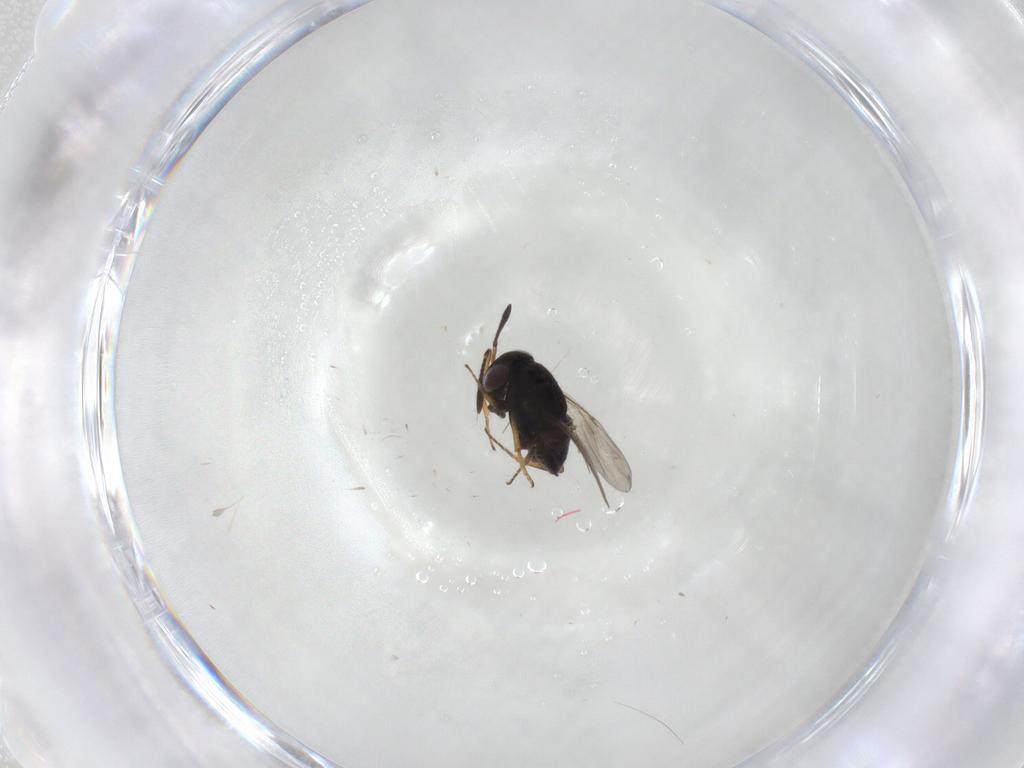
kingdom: Animalia
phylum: Arthropoda
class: Insecta
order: Hymenoptera
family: Encyrtidae
